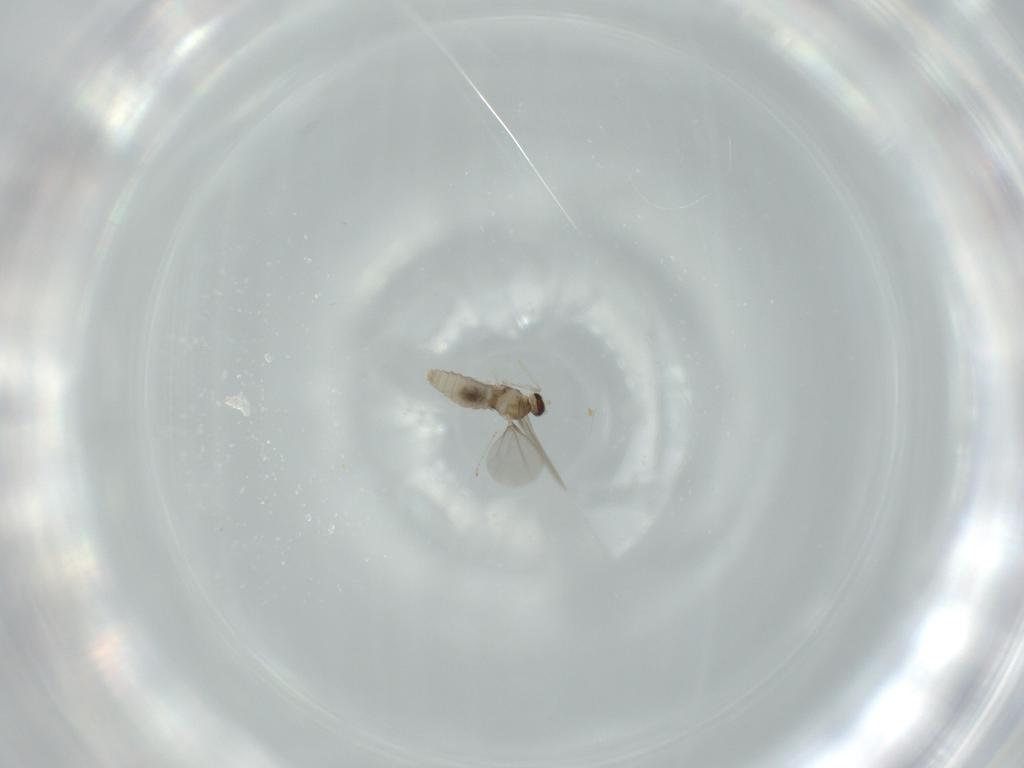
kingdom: Animalia
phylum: Arthropoda
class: Insecta
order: Diptera
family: Cecidomyiidae
